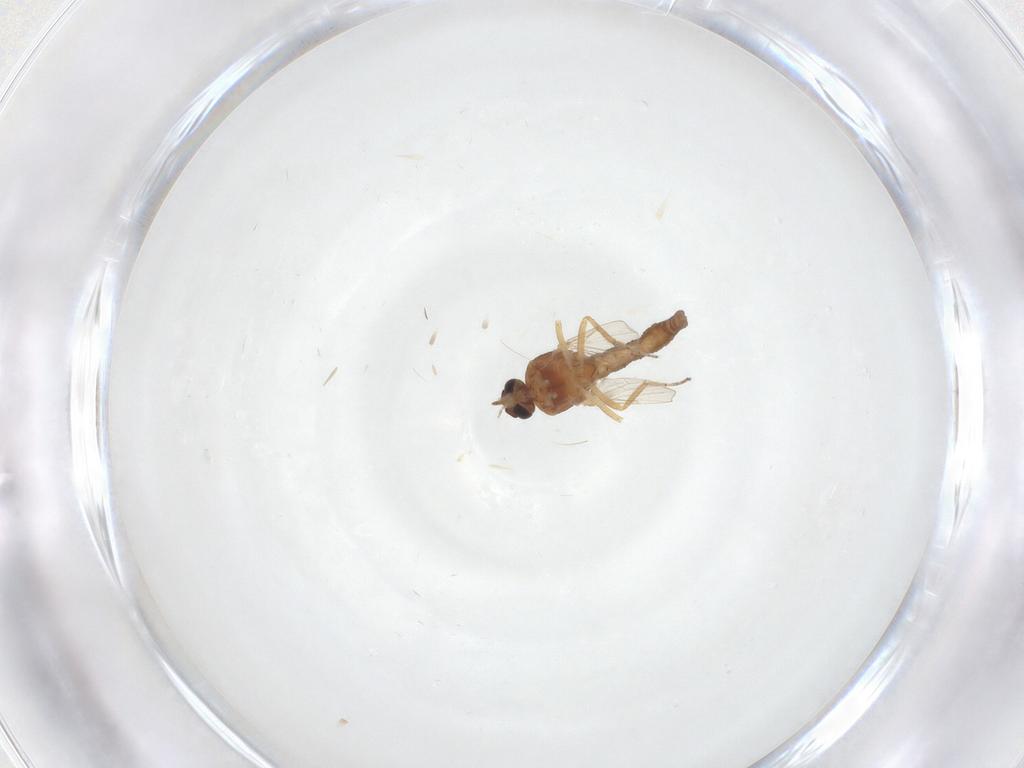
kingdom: Animalia
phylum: Arthropoda
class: Insecta
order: Diptera
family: Ceratopogonidae
